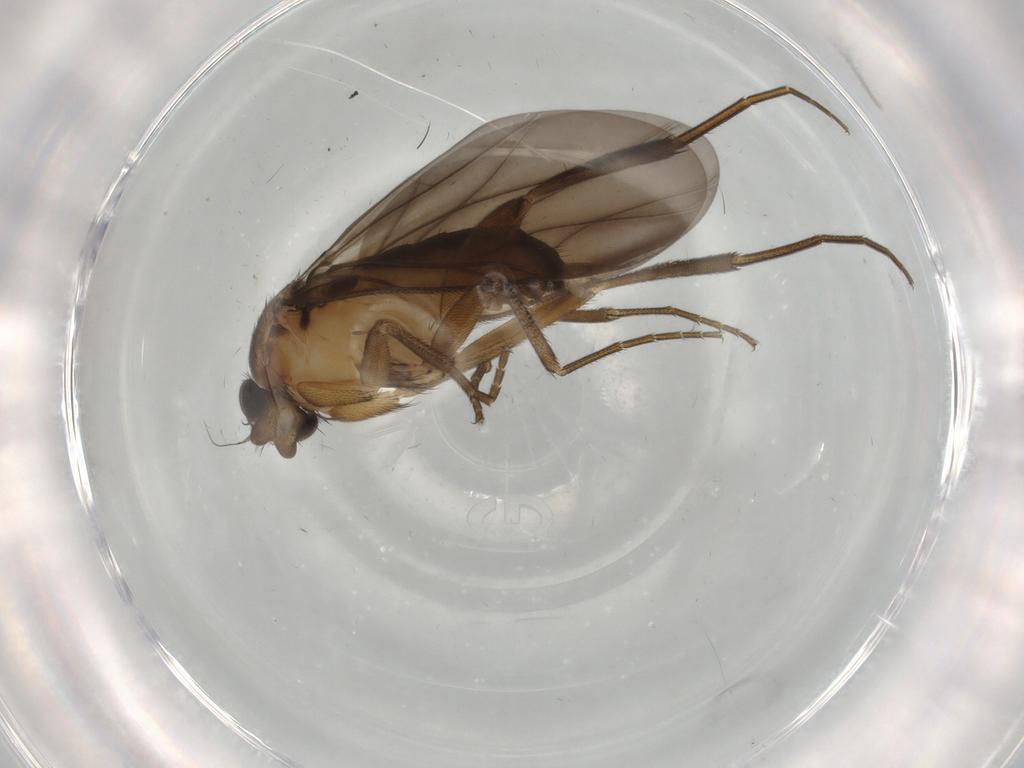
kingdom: Animalia
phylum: Arthropoda
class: Insecta
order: Diptera
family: Phoridae
